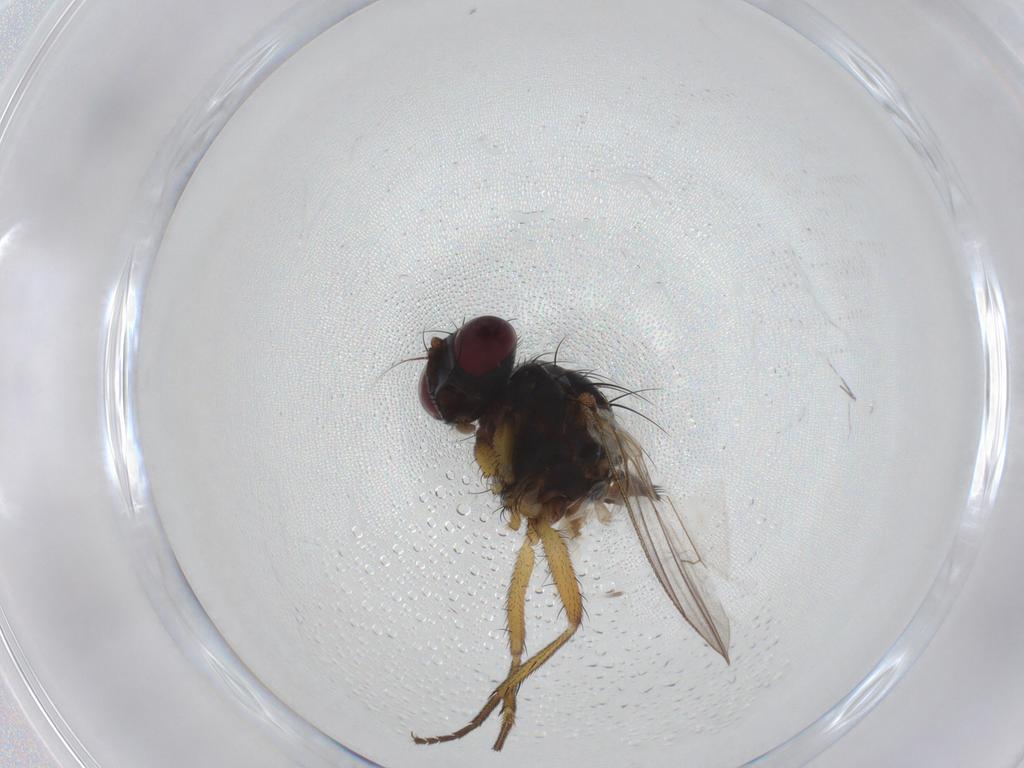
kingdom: Animalia
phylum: Arthropoda
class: Insecta
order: Diptera
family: Muscidae
